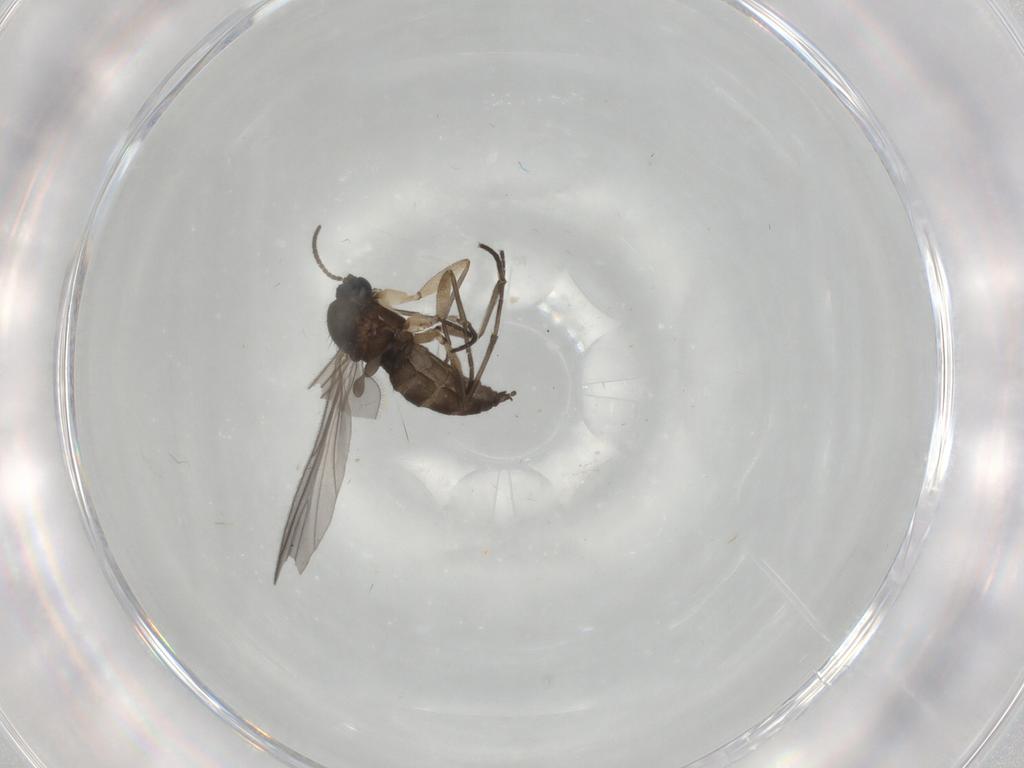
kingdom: Animalia
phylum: Arthropoda
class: Insecta
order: Diptera
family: Sciaridae
